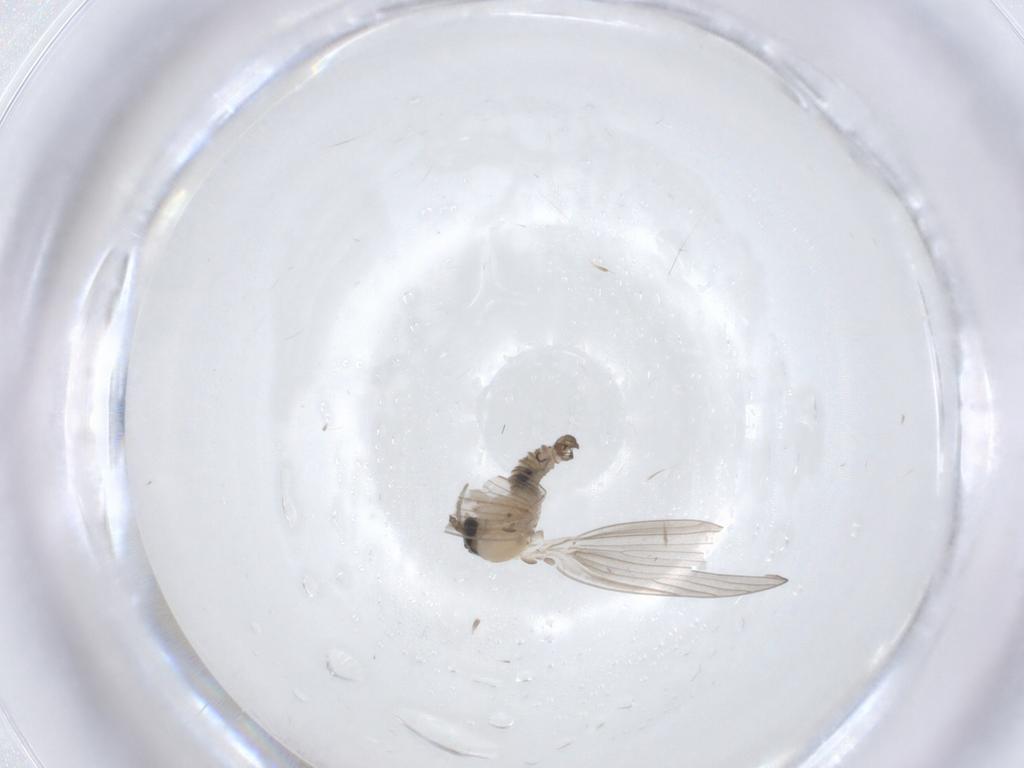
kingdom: Animalia
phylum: Arthropoda
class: Insecta
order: Diptera
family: Psychodidae
